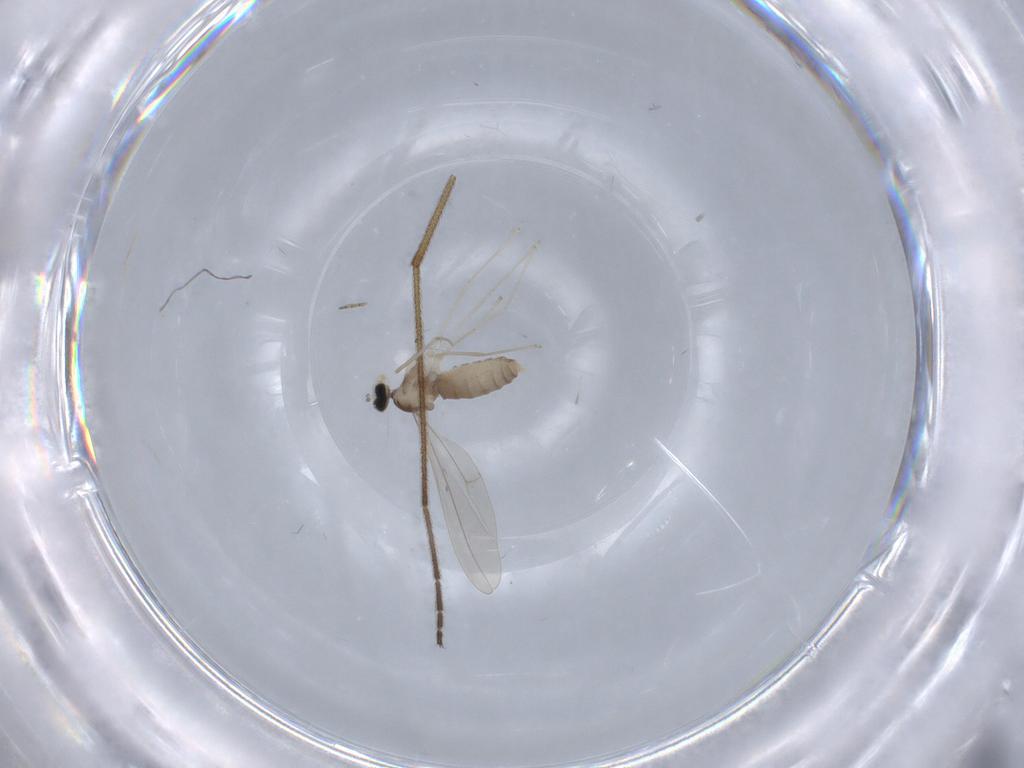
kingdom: Animalia
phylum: Arthropoda
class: Insecta
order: Diptera
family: Cecidomyiidae
